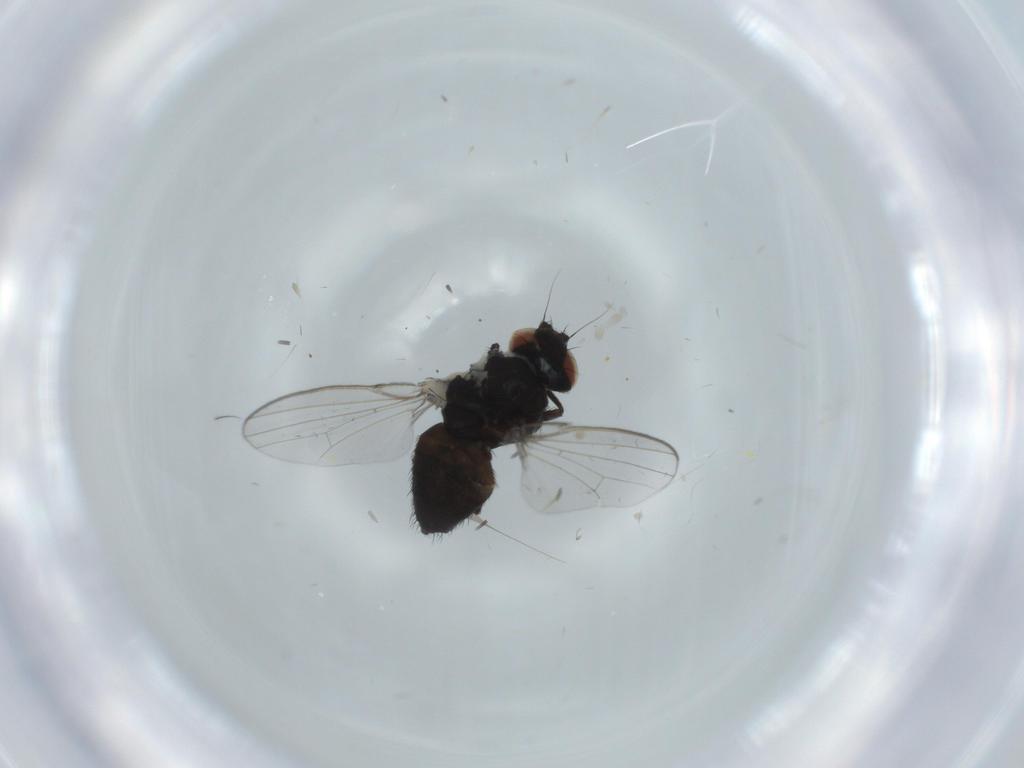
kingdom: Animalia
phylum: Arthropoda
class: Insecta
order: Diptera
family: Milichiidae
